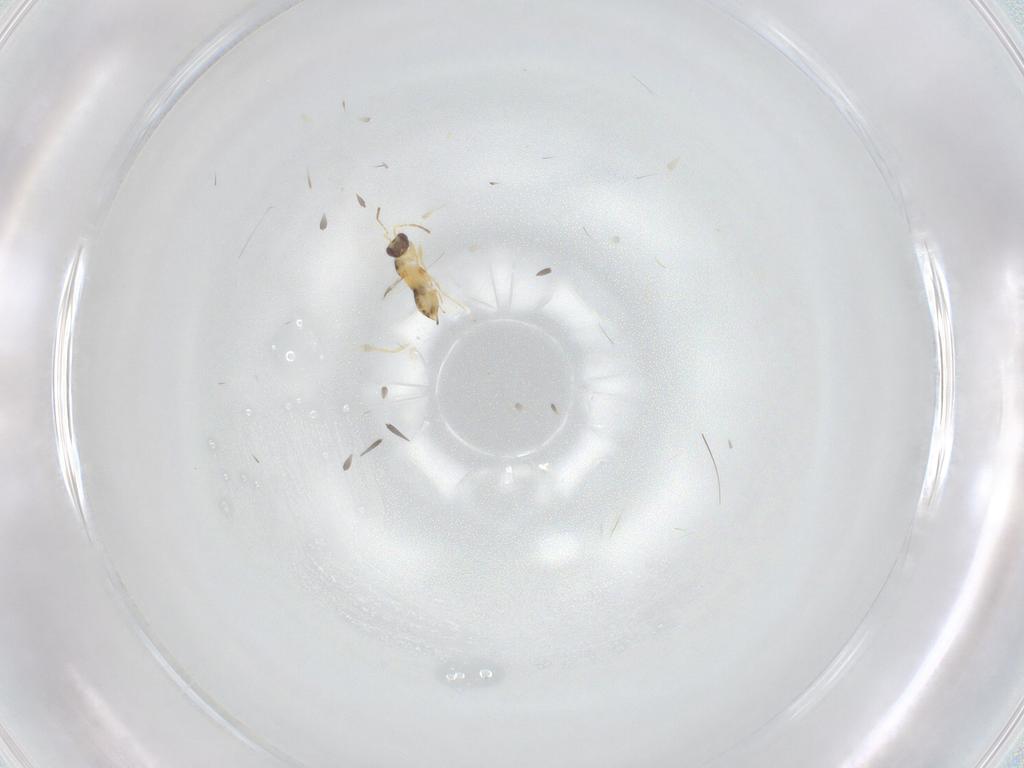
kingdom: Animalia
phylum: Arthropoda
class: Insecta
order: Hymenoptera
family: Mymaridae
